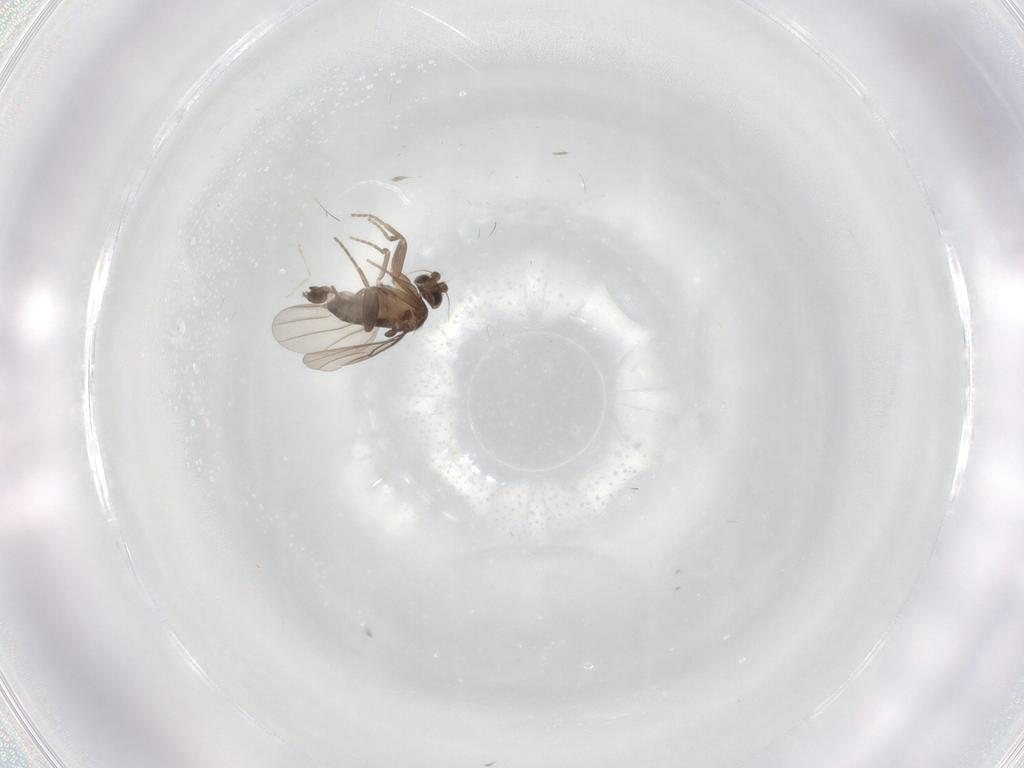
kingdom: Animalia
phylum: Arthropoda
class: Insecta
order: Diptera
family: Phoridae
